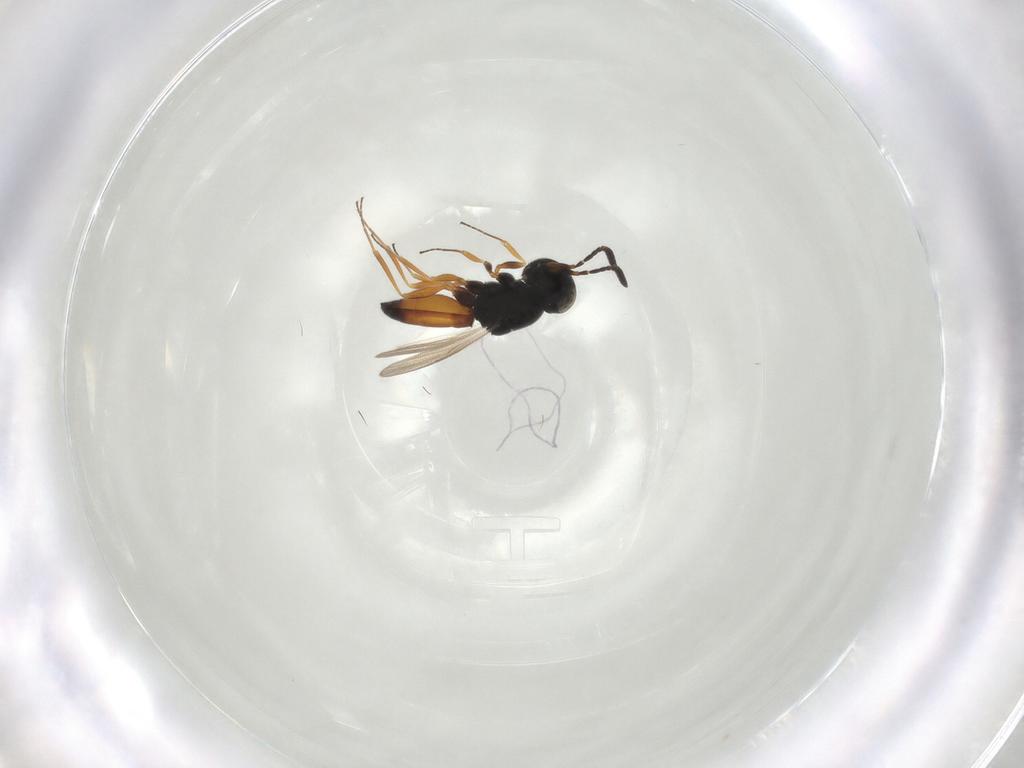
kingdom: Animalia
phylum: Arthropoda
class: Insecta
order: Hymenoptera
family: Scelionidae
